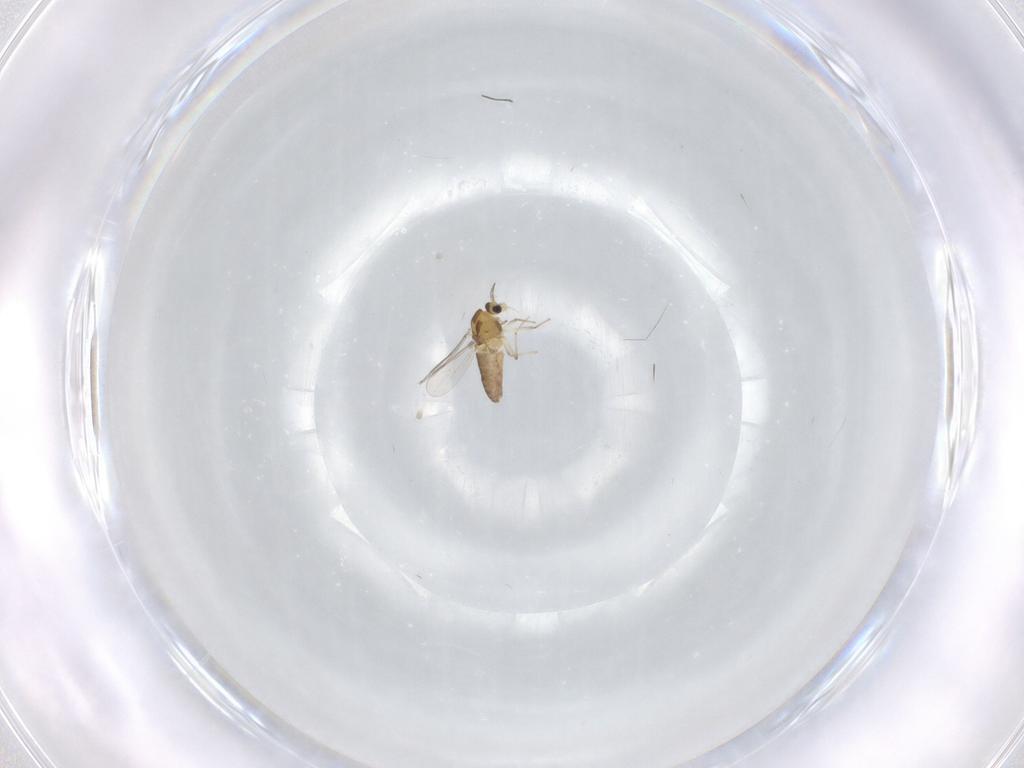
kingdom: Animalia
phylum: Arthropoda
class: Insecta
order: Diptera
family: Chironomidae
